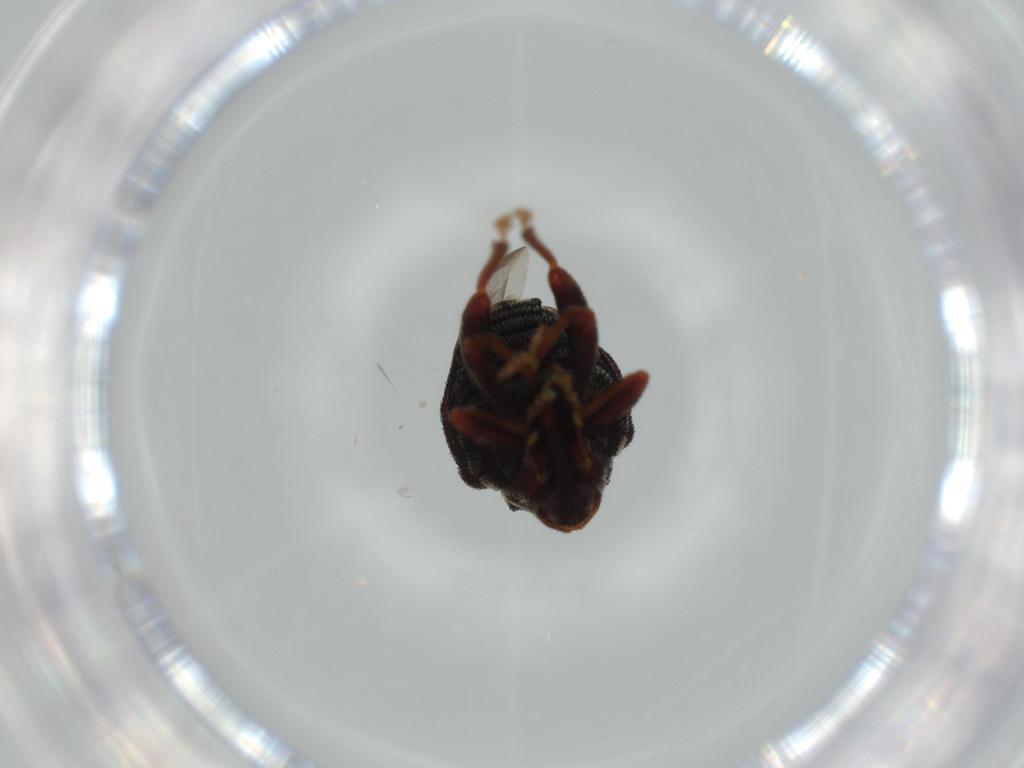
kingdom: Animalia
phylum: Arthropoda
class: Insecta
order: Coleoptera
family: Curculionidae
